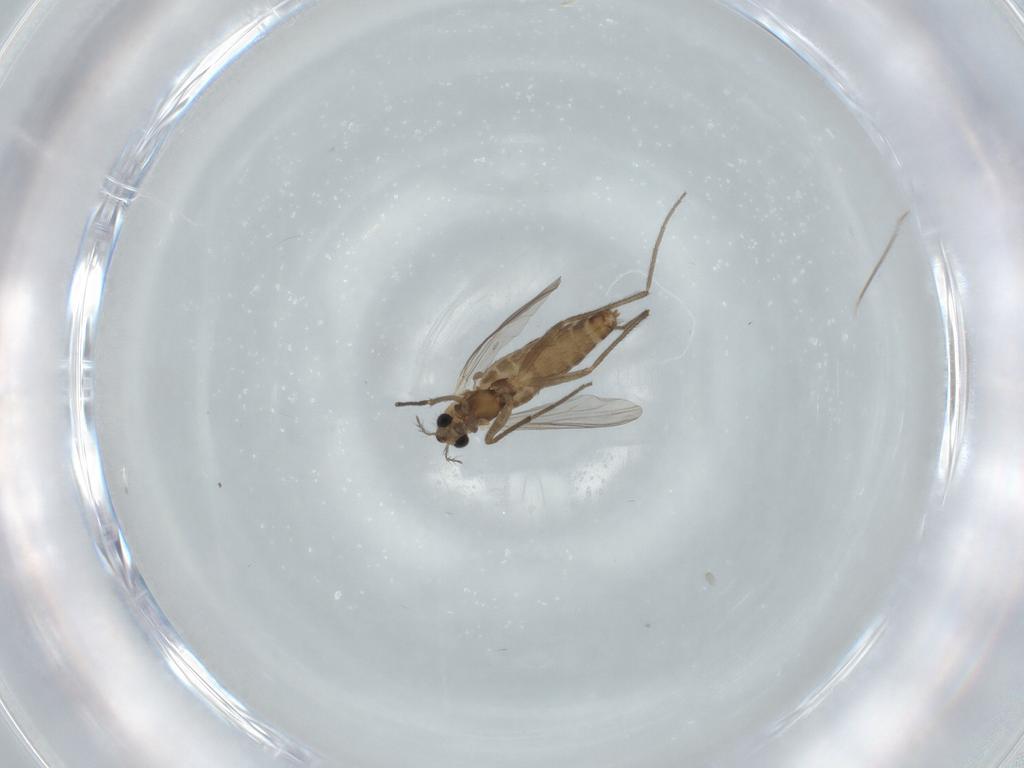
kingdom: Animalia
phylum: Arthropoda
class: Insecta
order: Diptera
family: Chironomidae
